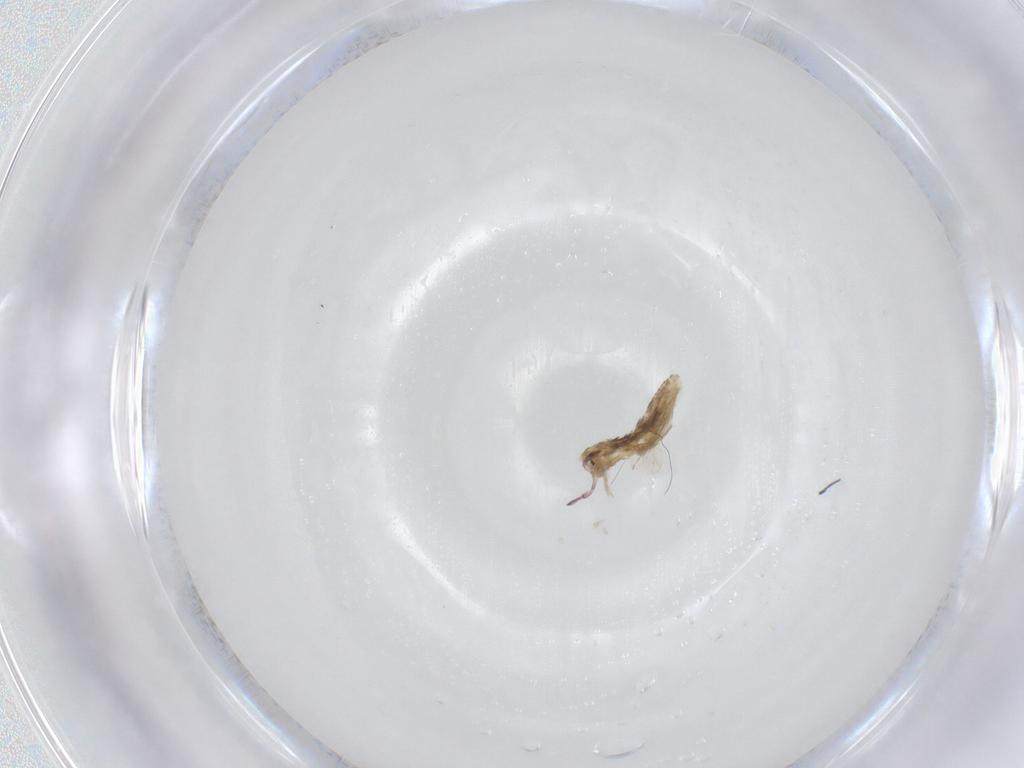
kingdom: Animalia
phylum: Arthropoda
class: Collembola
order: Entomobryomorpha
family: Entomobryidae
